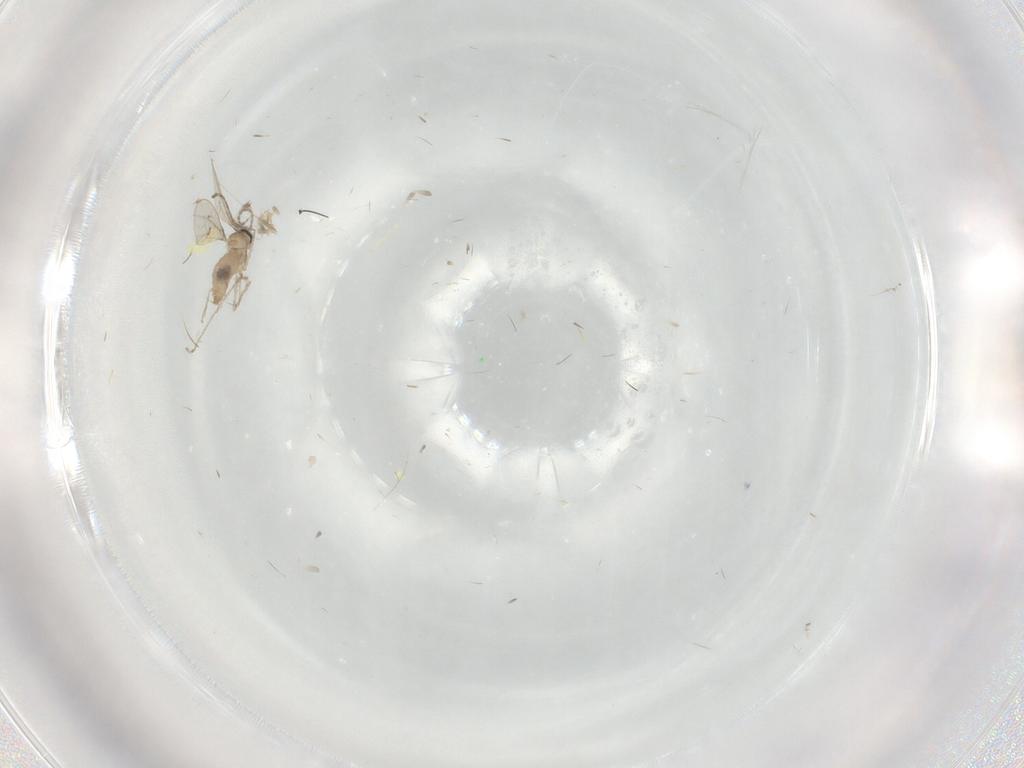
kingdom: Animalia
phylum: Arthropoda
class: Insecta
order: Diptera
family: Cecidomyiidae
